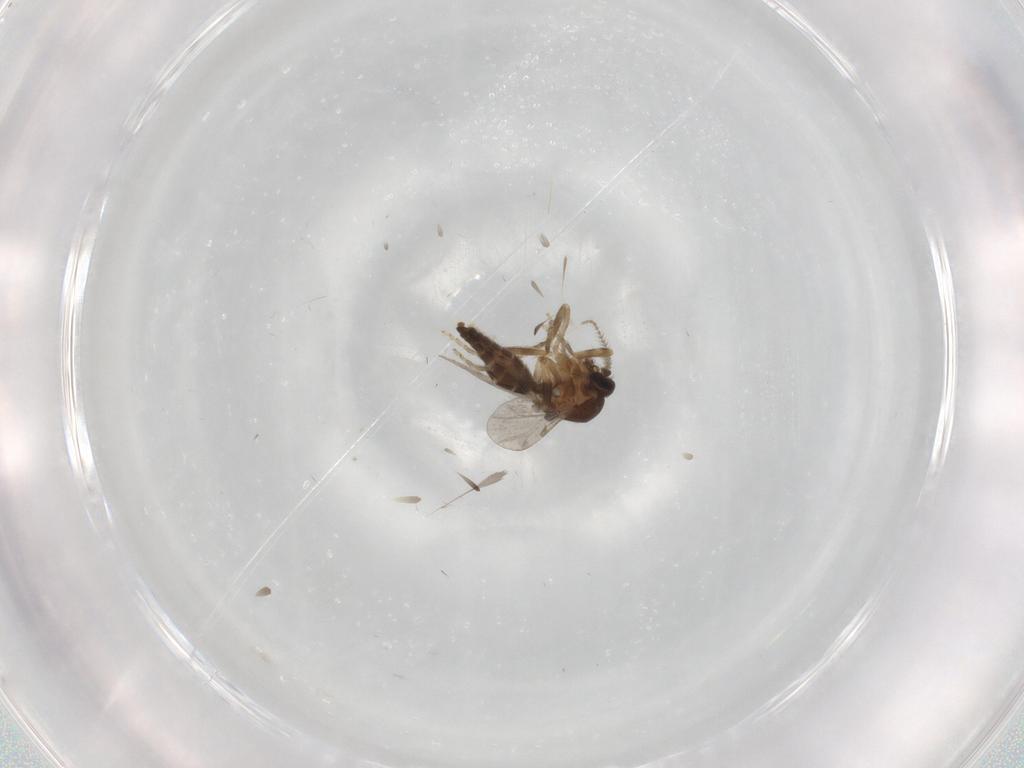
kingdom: Animalia
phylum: Arthropoda
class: Insecta
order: Diptera
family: Ceratopogonidae
